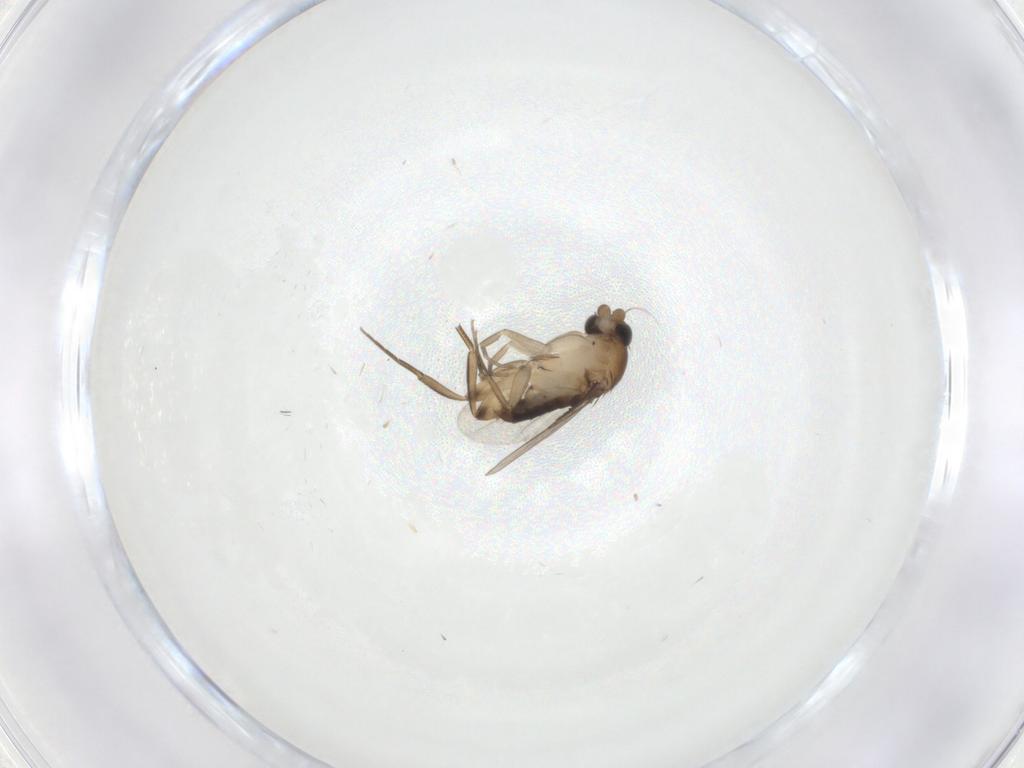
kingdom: Animalia
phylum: Arthropoda
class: Insecta
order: Diptera
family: Phoridae
